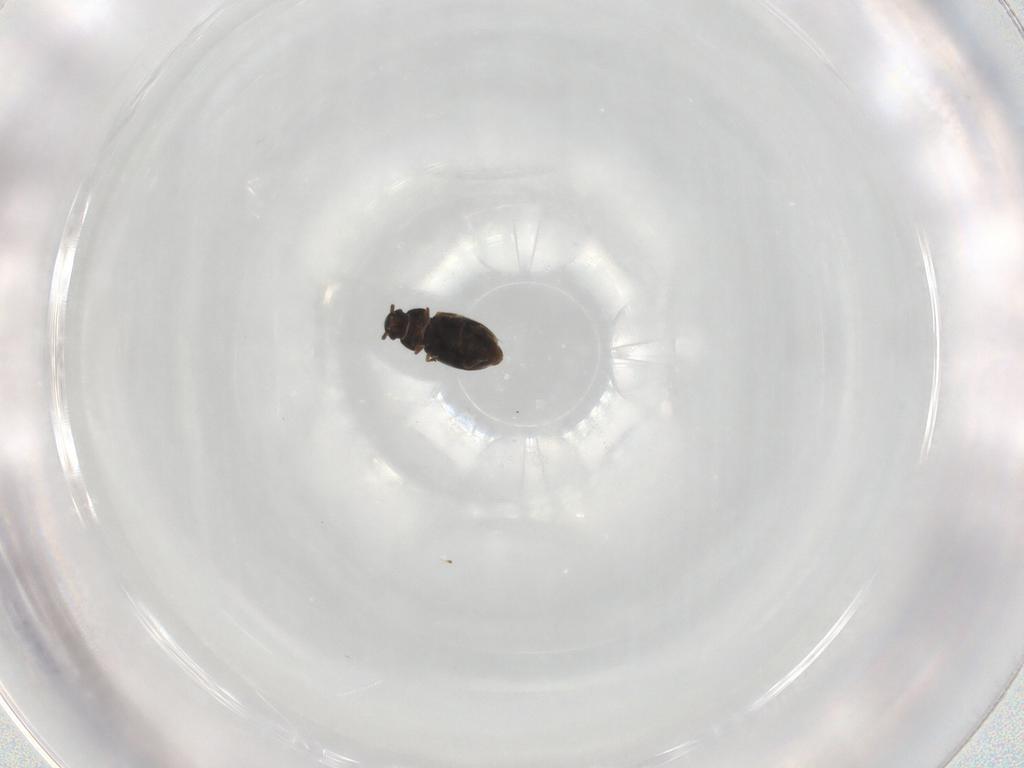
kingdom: Animalia
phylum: Arthropoda
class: Insecta
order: Coleoptera
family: Ptiliidae
